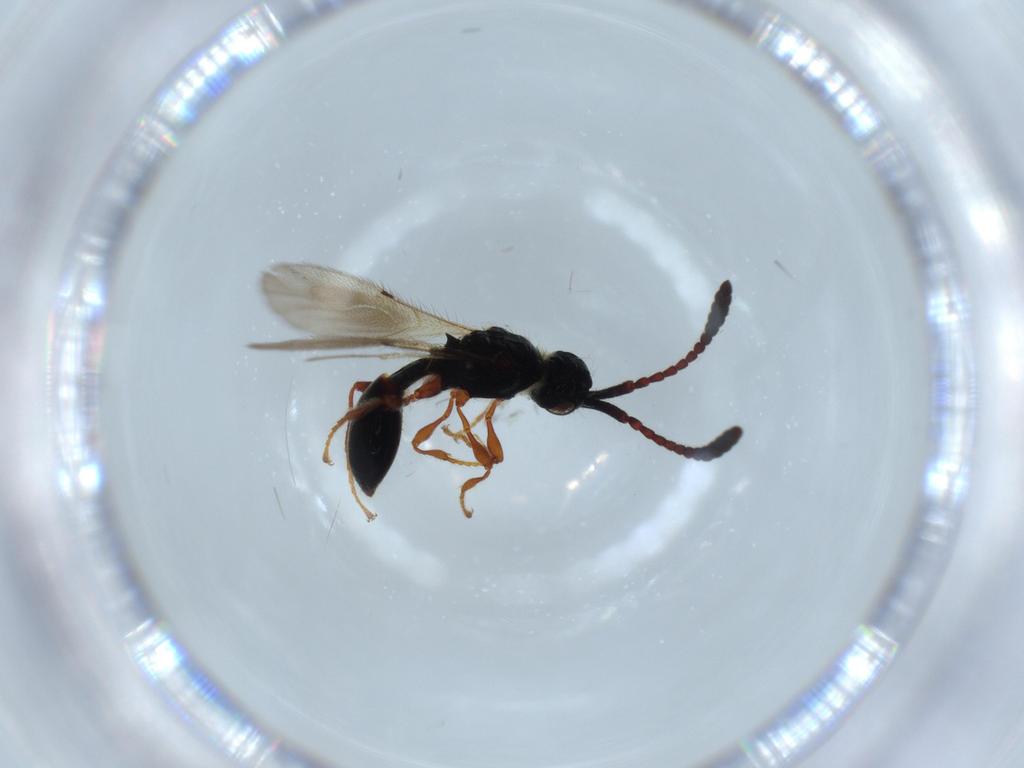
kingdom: Animalia
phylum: Arthropoda
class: Insecta
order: Hymenoptera
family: Diapriidae
